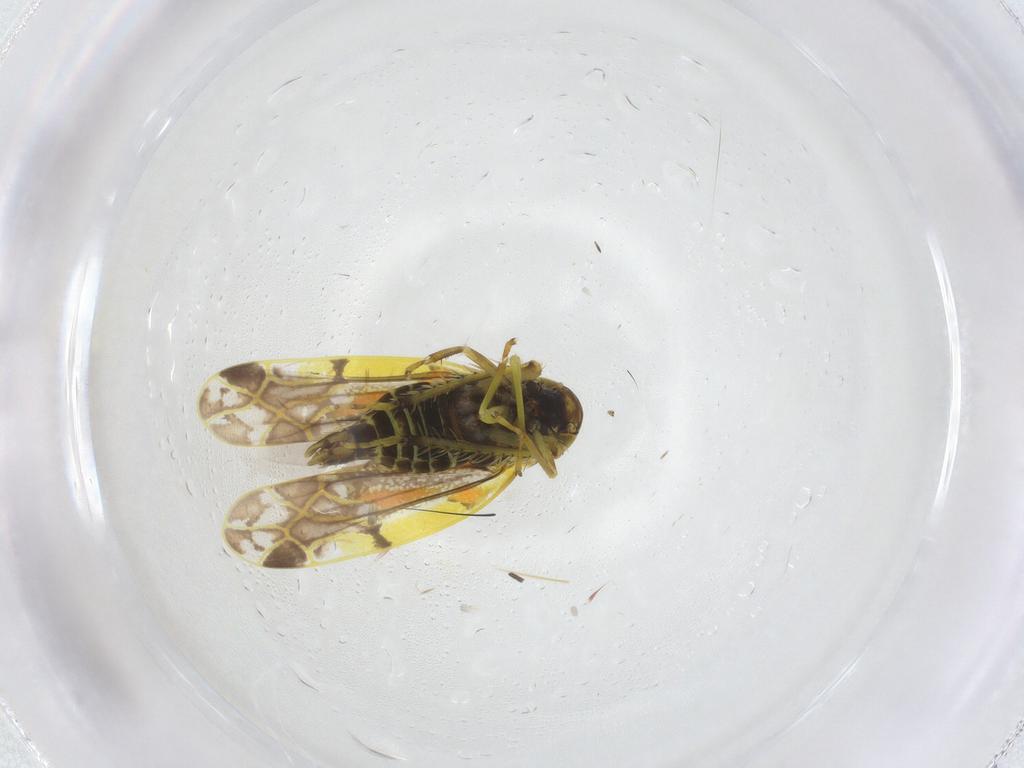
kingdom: Animalia
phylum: Arthropoda
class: Insecta
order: Hemiptera
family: Cicadellidae
